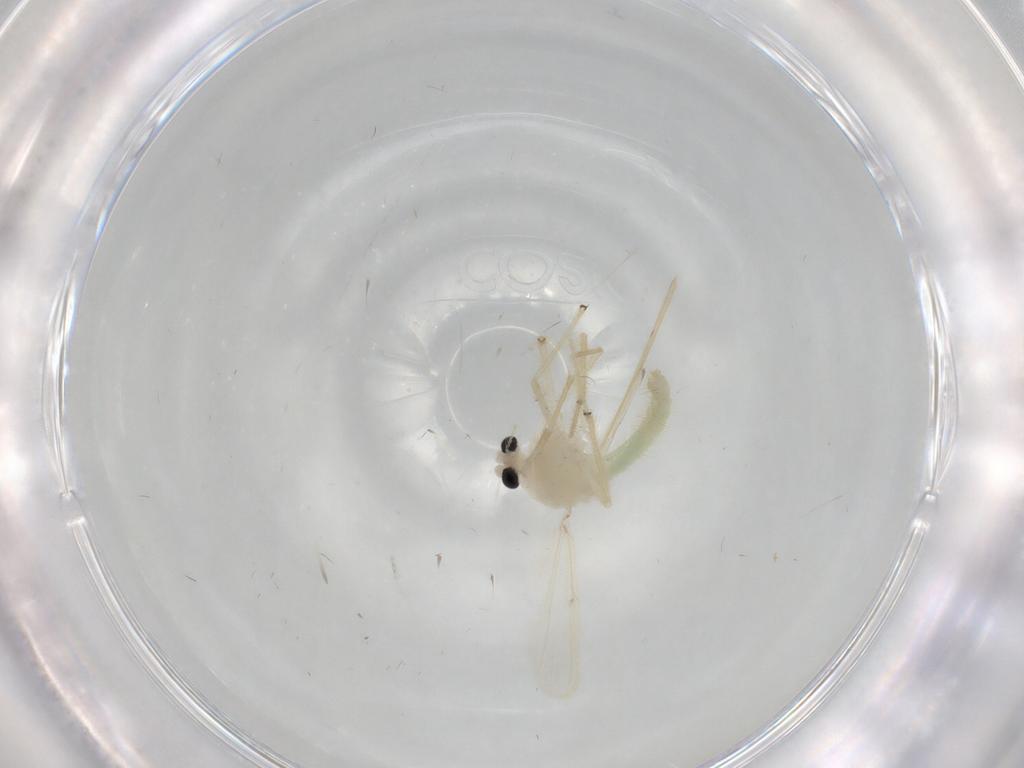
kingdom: Animalia
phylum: Arthropoda
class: Insecta
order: Diptera
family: Chironomidae
